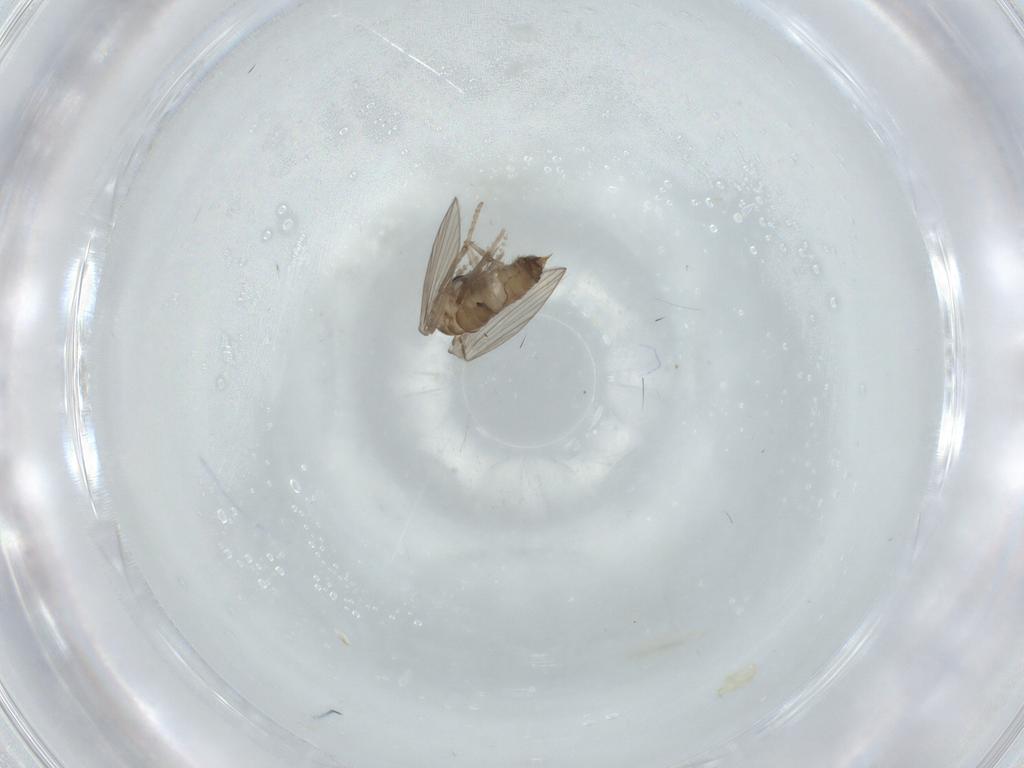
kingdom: Animalia
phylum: Arthropoda
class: Insecta
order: Diptera
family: Psychodidae
